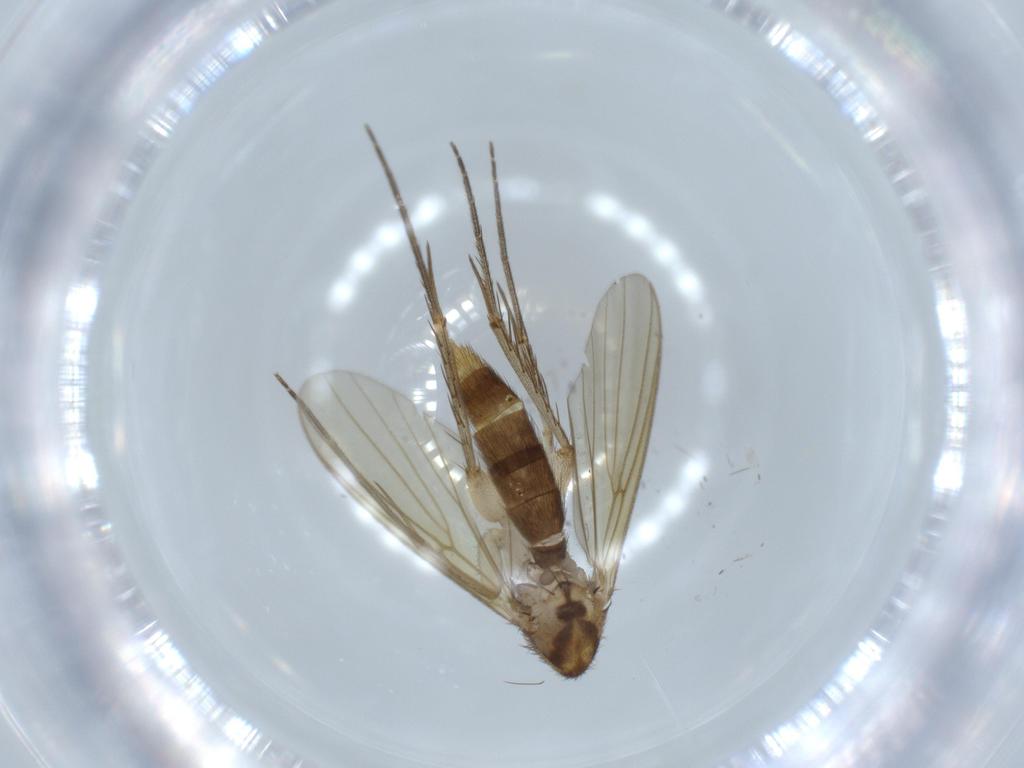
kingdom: Animalia
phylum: Arthropoda
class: Insecta
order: Diptera
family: Mycetophilidae
